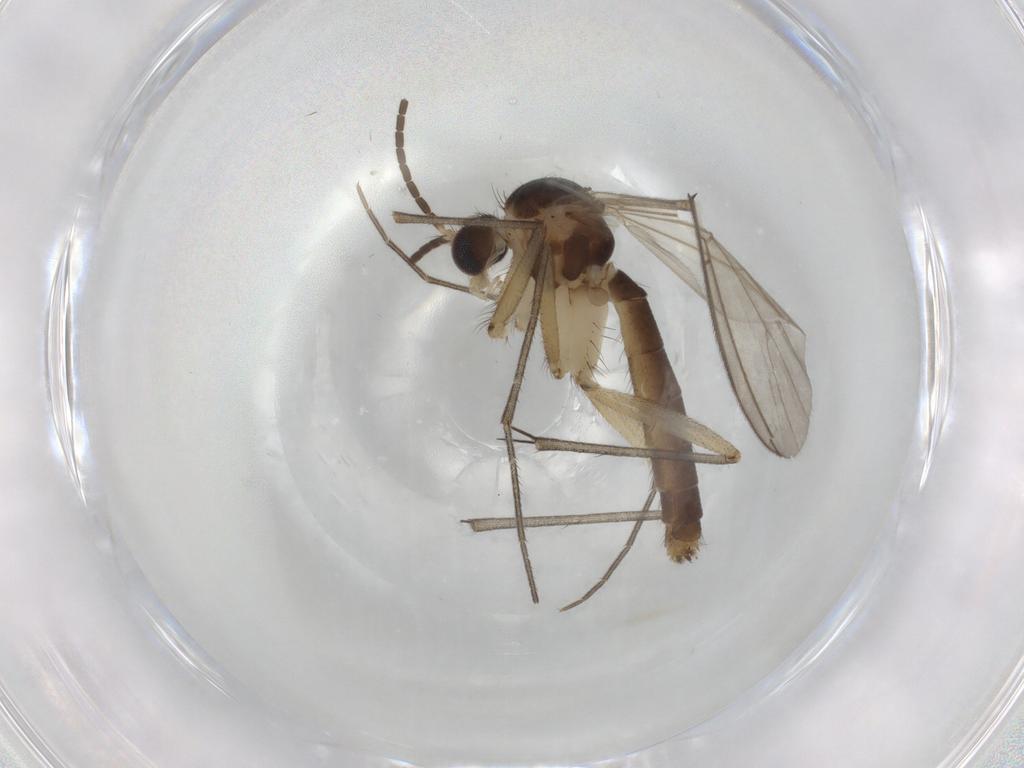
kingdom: Animalia
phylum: Arthropoda
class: Insecta
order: Diptera
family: Mycetophilidae
